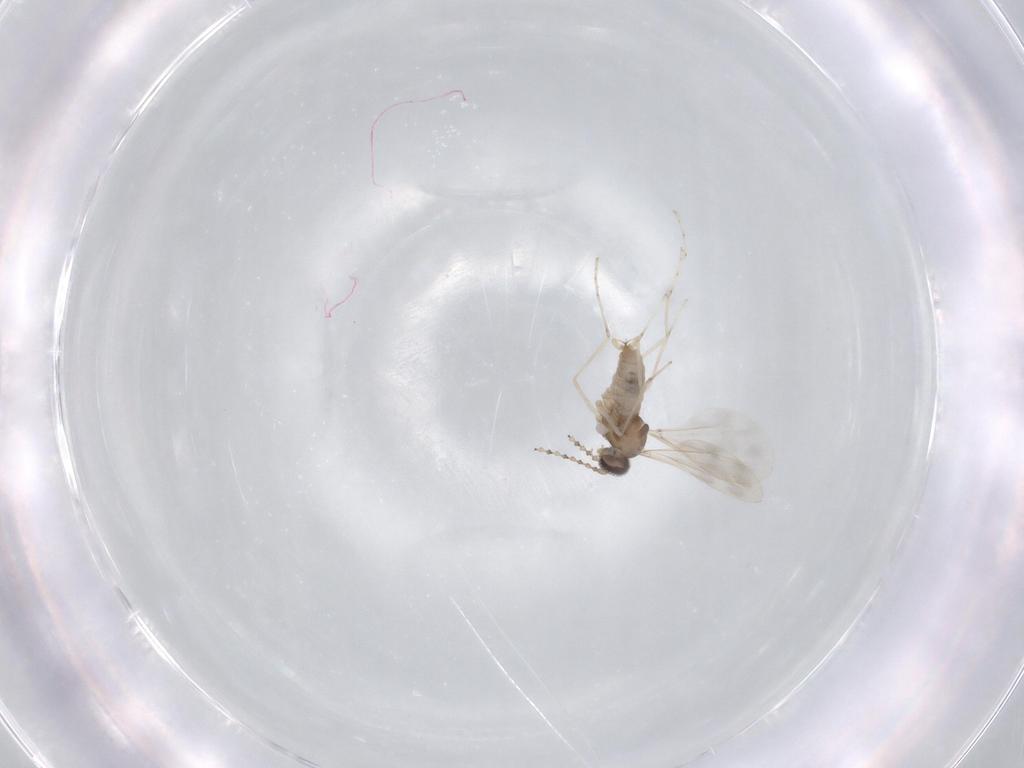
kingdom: Animalia
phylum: Arthropoda
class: Insecta
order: Diptera
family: Cecidomyiidae
